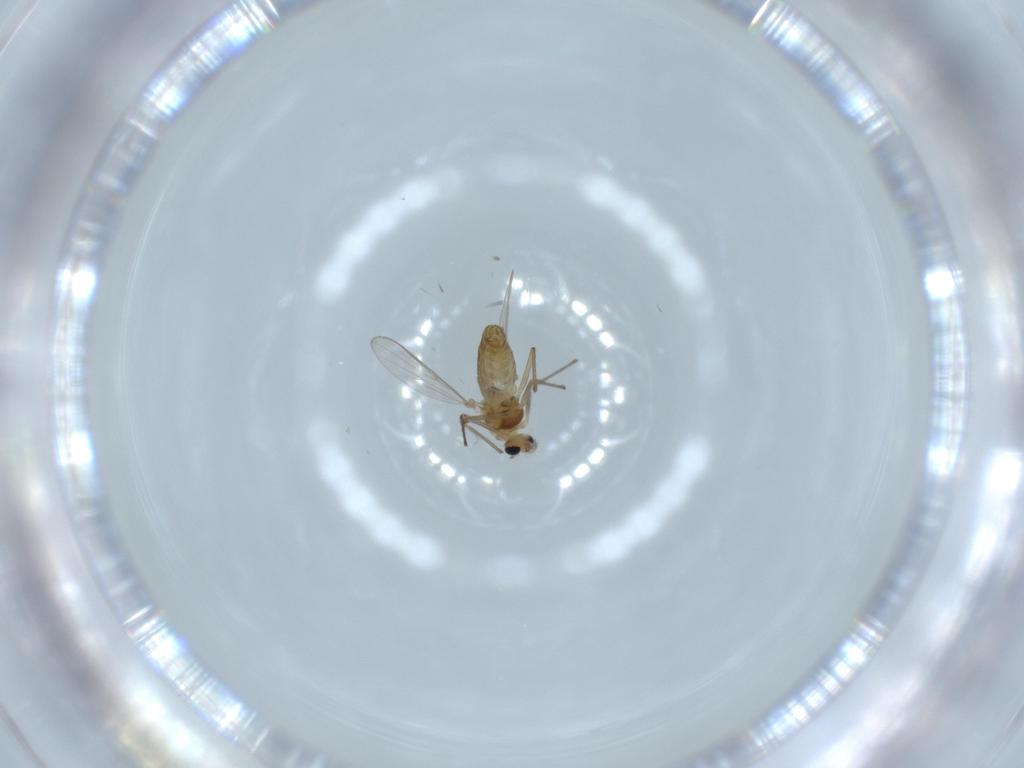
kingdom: Animalia
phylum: Arthropoda
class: Insecta
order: Diptera
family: Chironomidae
